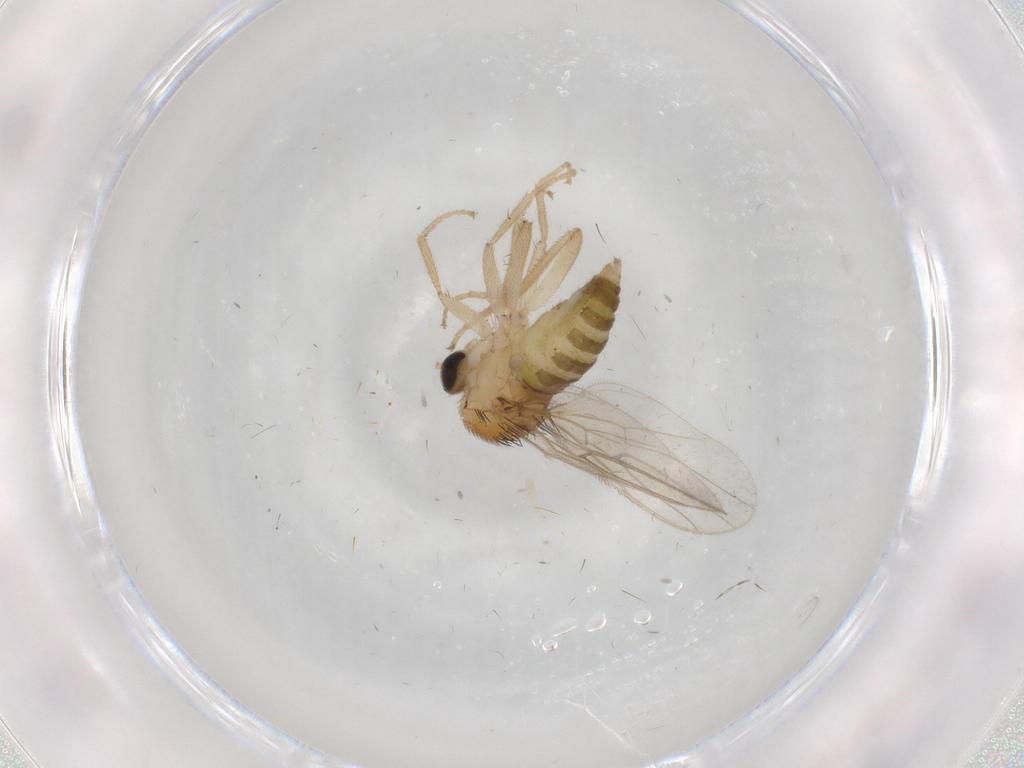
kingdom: Animalia
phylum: Arthropoda
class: Insecta
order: Diptera
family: Hybotidae
